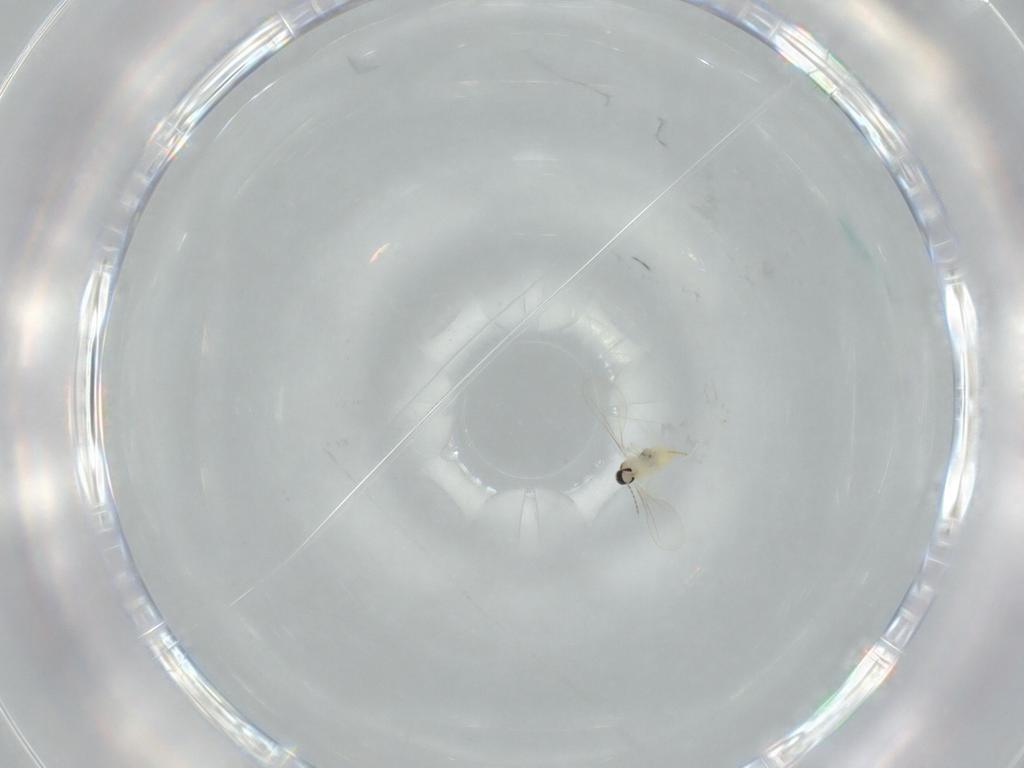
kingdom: Animalia
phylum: Arthropoda
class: Insecta
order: Diptera
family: Cecidomyiidae
